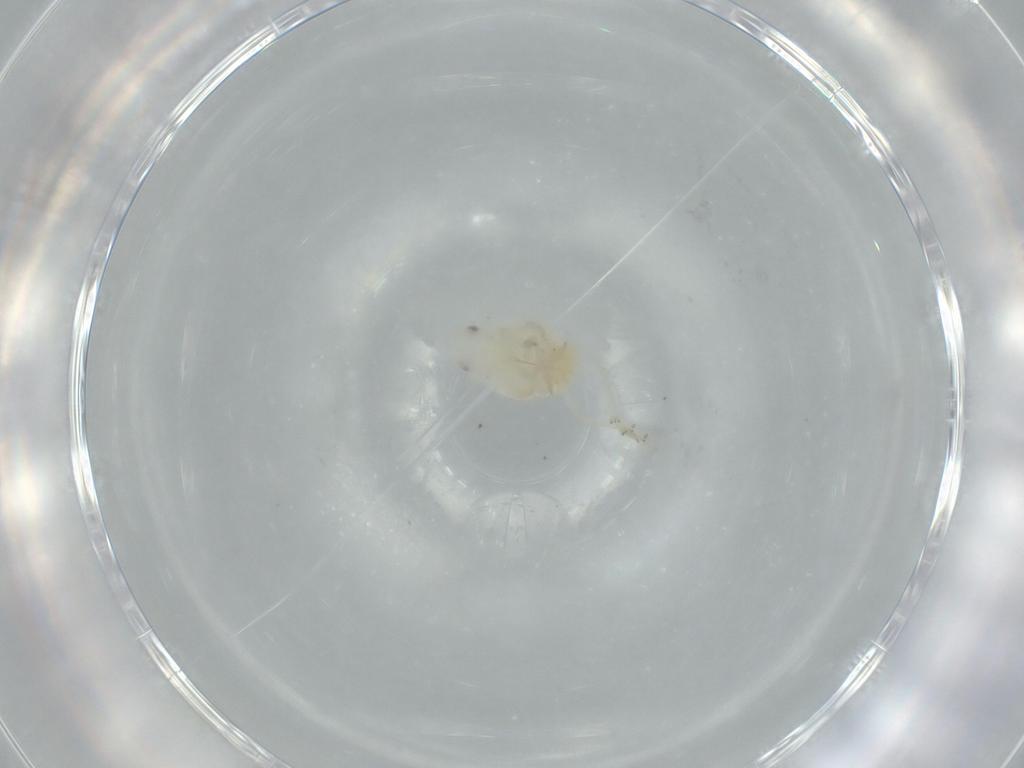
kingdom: Animalia
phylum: Arthropoda
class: Insecta
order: Hemiptera
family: Flatidae
